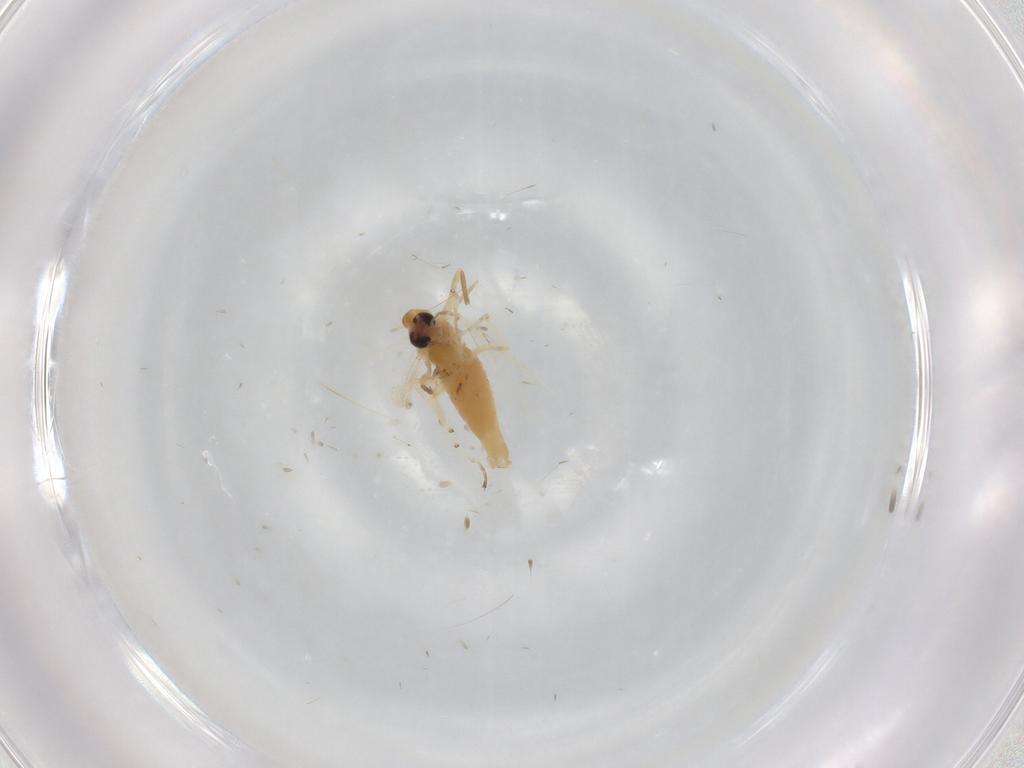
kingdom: Animalia
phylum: Arthropoda
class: Insecta
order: Diptera
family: Chironomidae
